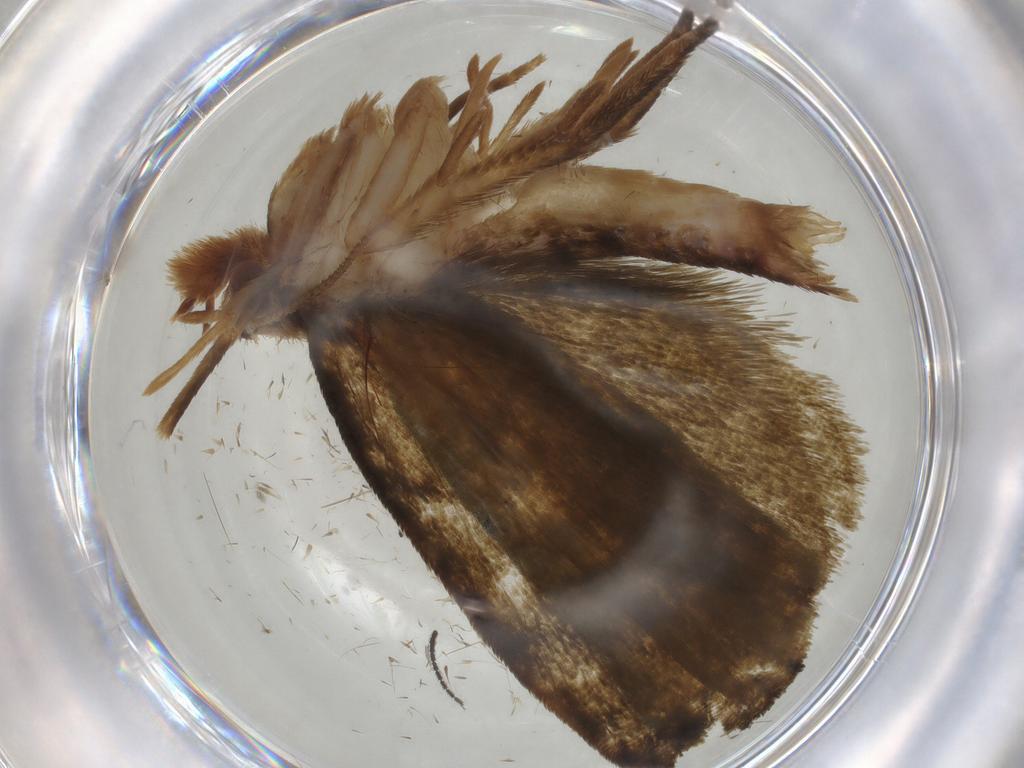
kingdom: Animalia
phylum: Arthropoda
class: Insecta
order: Lepidoptera
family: Geometridae
